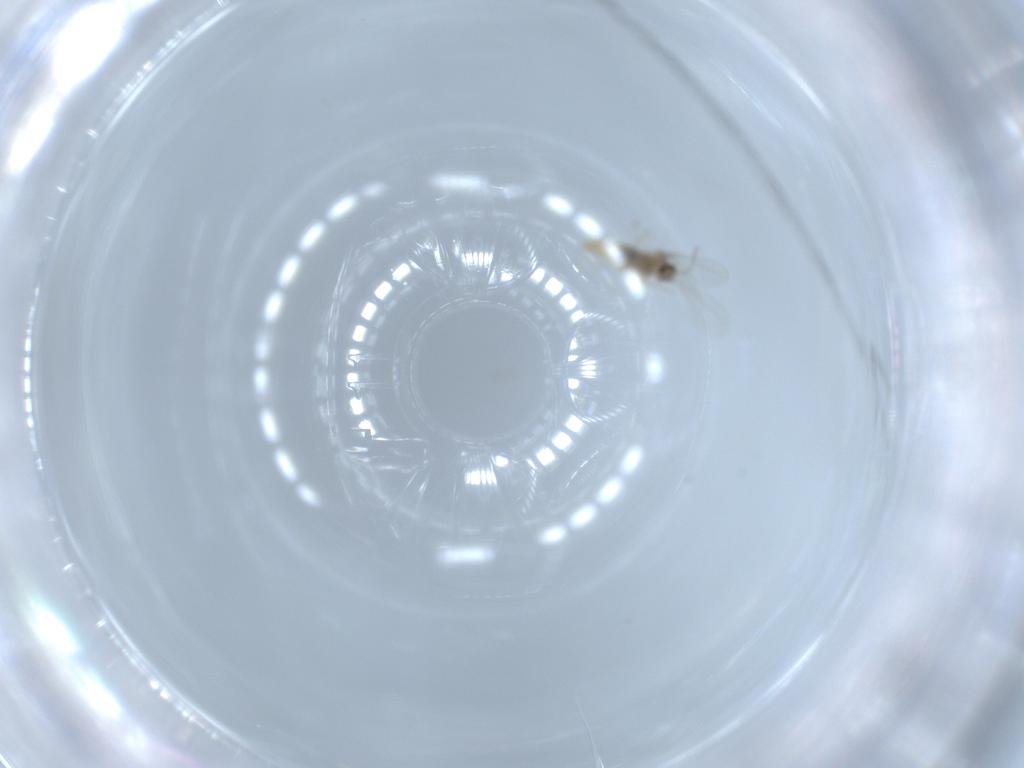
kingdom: Animalia
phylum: Arthropoda
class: Insecta
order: Diptera
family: Cecidomyiidae
